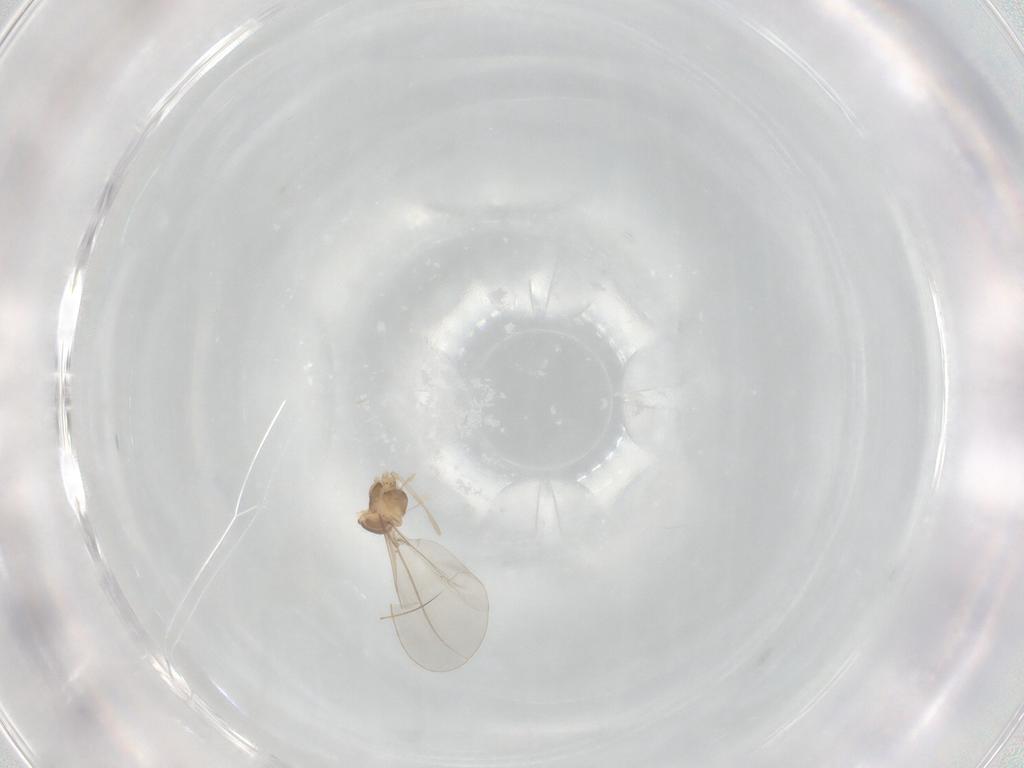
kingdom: Animalia
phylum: Arthropoda
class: Insecta
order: Diptera
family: Cecidomyiidae
